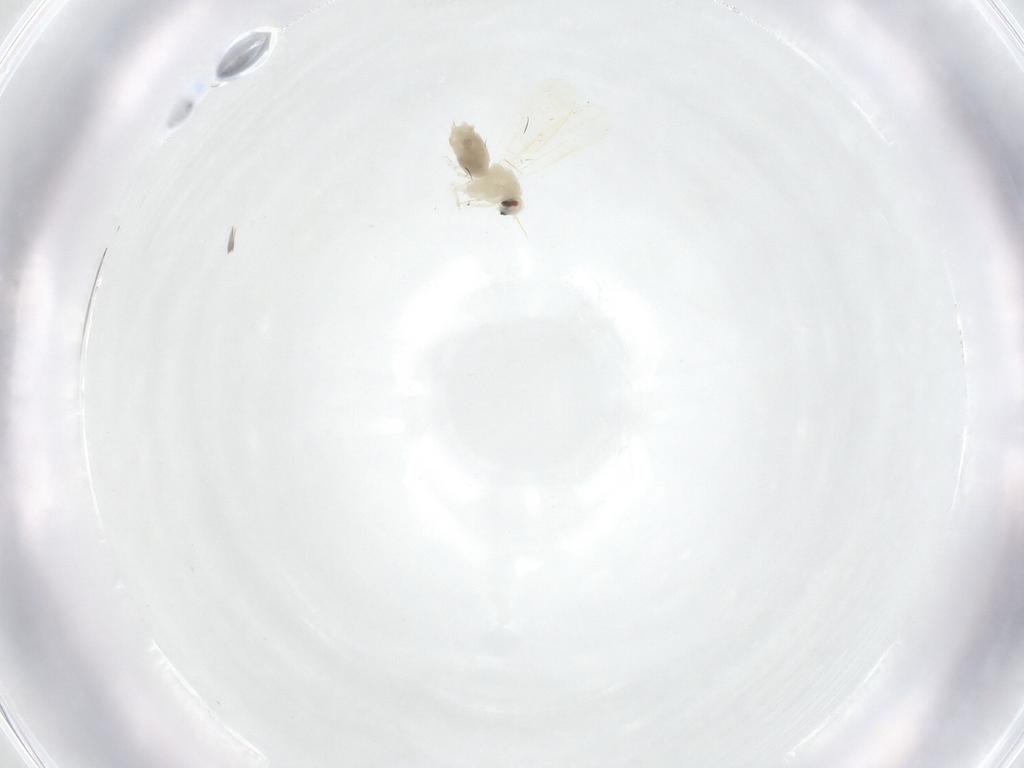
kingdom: Animalia
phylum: Arthropoda
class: Insecta
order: Hemiptera
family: Aleyrodidae
